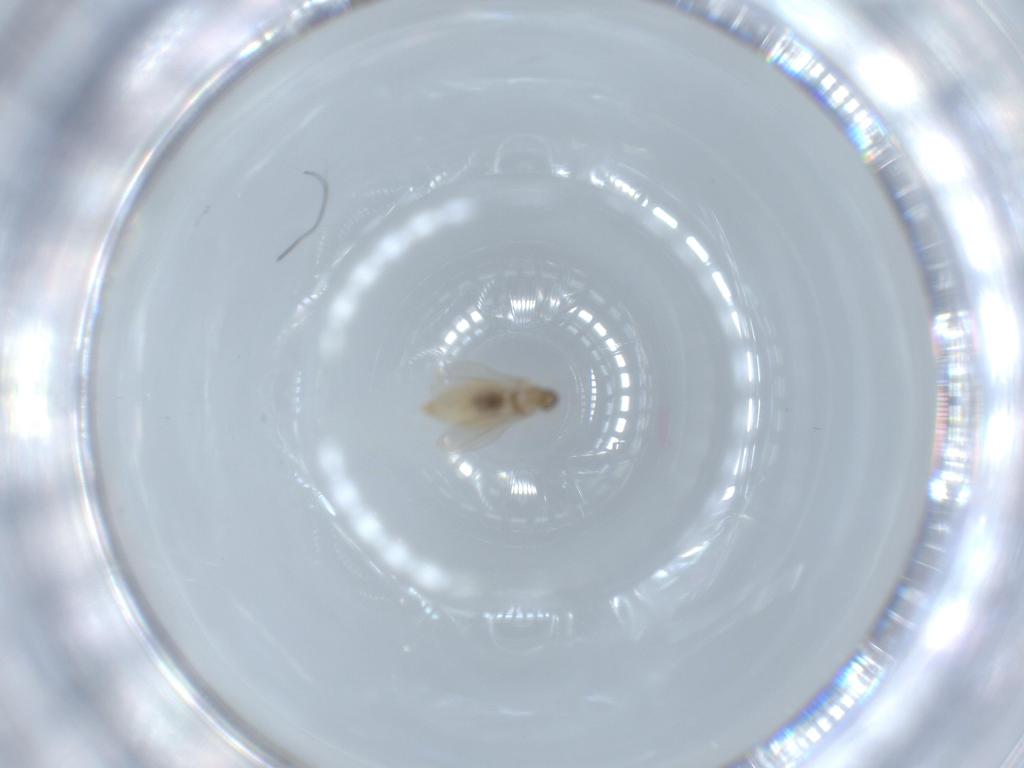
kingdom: Animalia
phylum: Arthropoda
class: Insecta
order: Diptera
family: Cecidomyiidae
